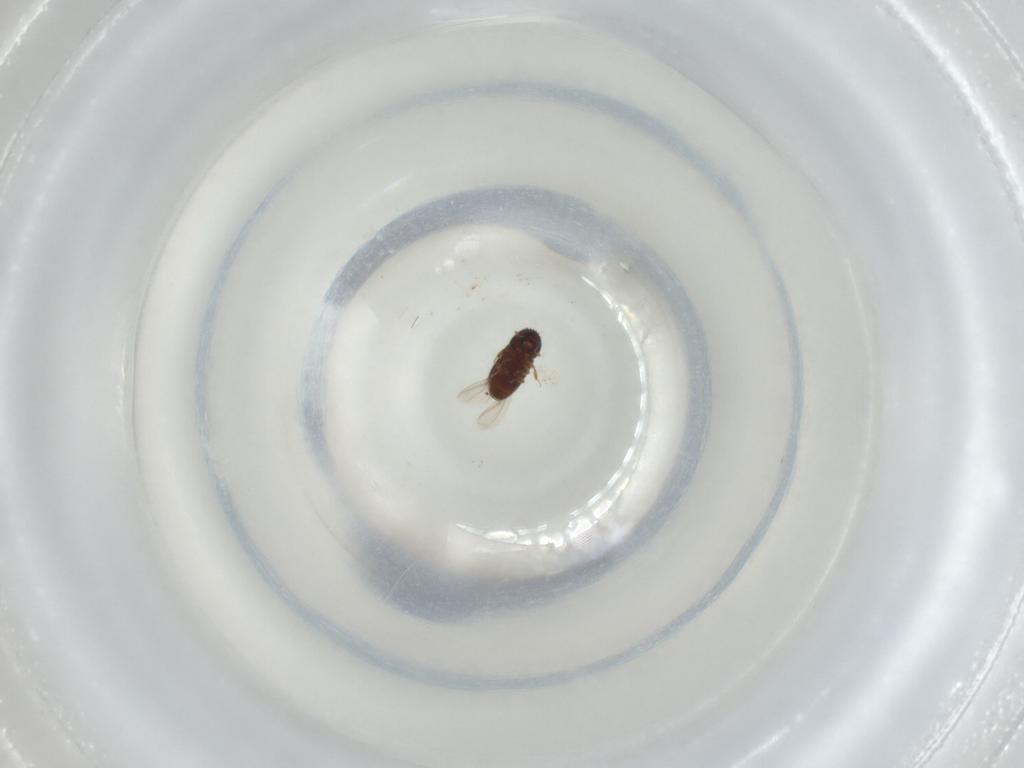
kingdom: Animalia
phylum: Arthropoda
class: Insecta
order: Coleoptera
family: Curculionidae
